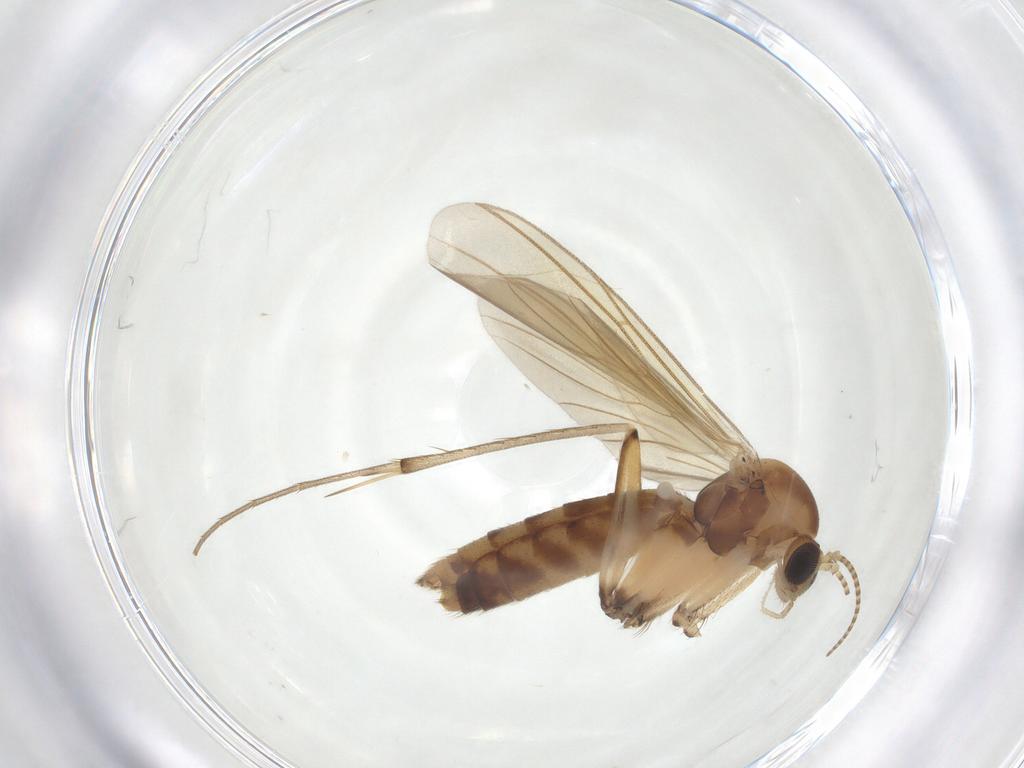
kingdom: Animalia
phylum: Arthropoda
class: Insecta
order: Diptera
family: Mycetophilidae
